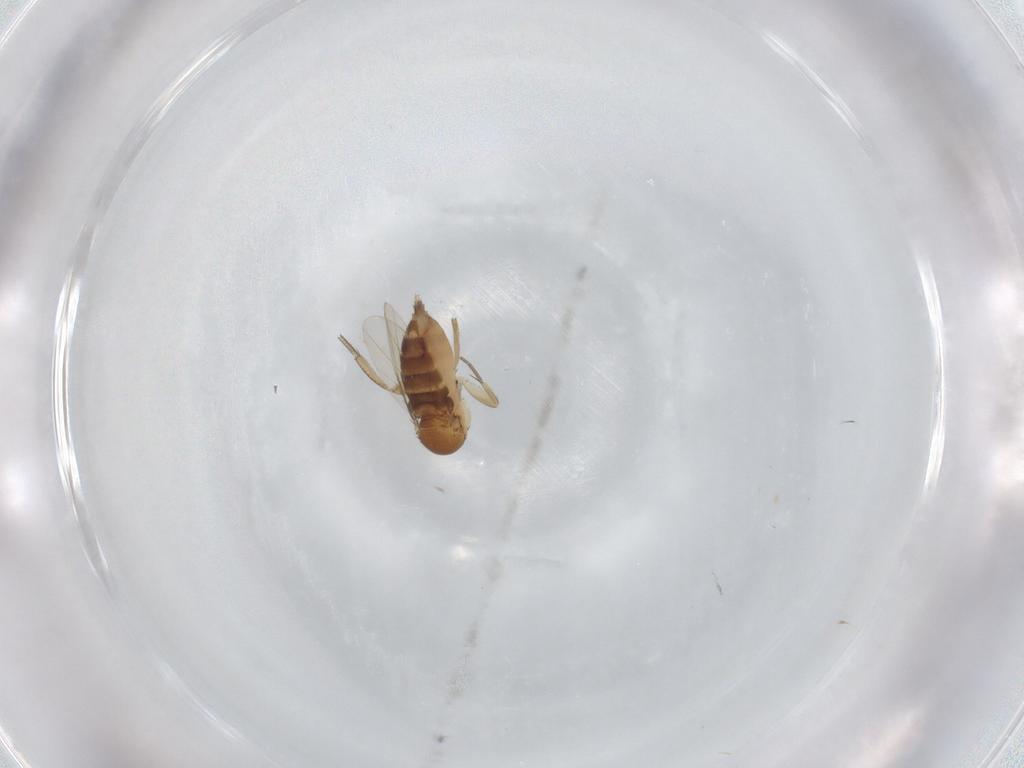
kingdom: Animalia
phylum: Arthropoda
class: Insecta
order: Diptera
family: Phoridae
